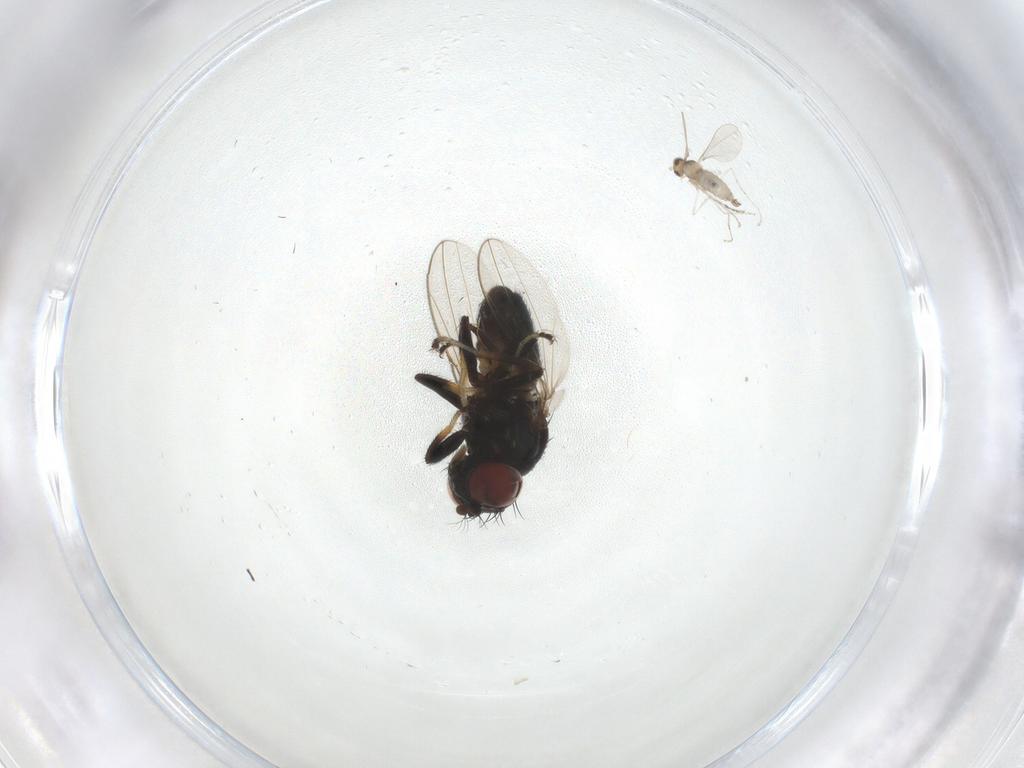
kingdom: Animalia
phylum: Arthropoda
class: Insecta
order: Diptera
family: Ephydridae
